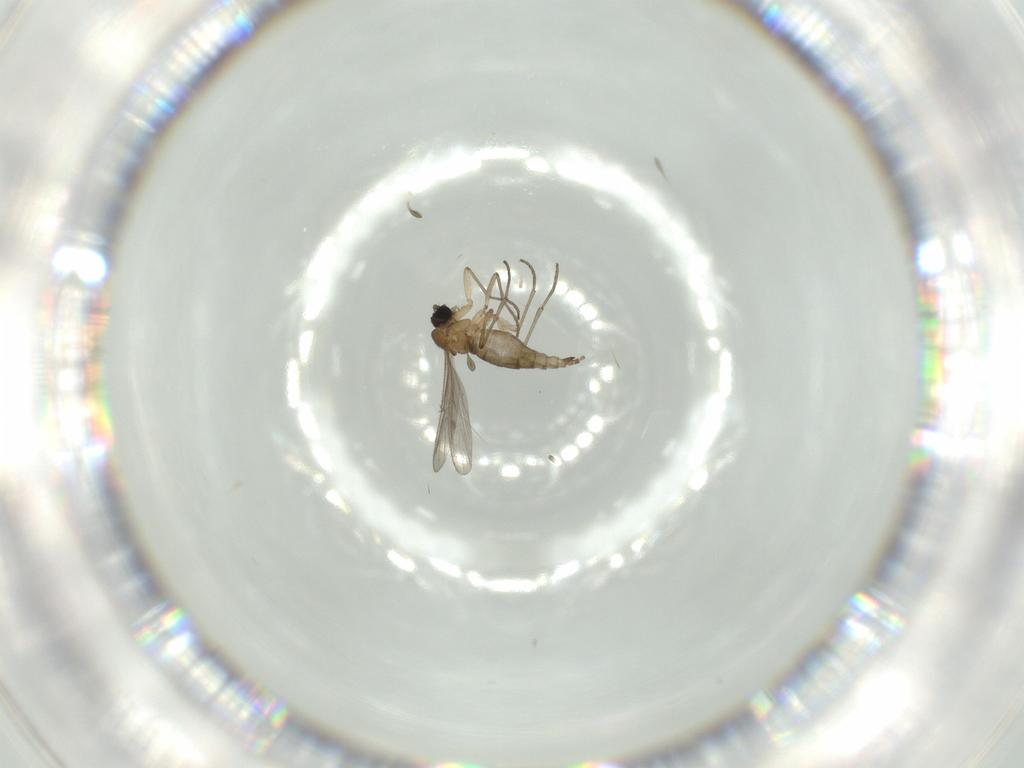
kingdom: Animalia
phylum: Arthropoda
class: Insecta
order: Diptera
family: Sciaridae
